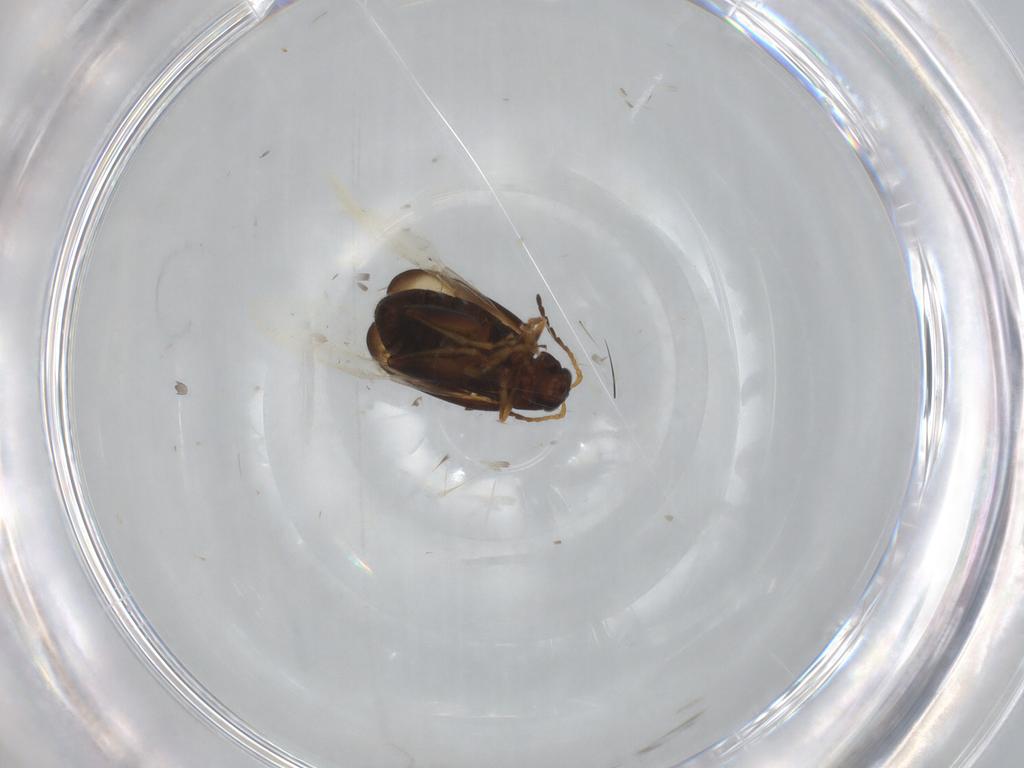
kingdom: Animalia
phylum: Arthropoda
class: Insecta
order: Coleoptera
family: Chrysomelidae
